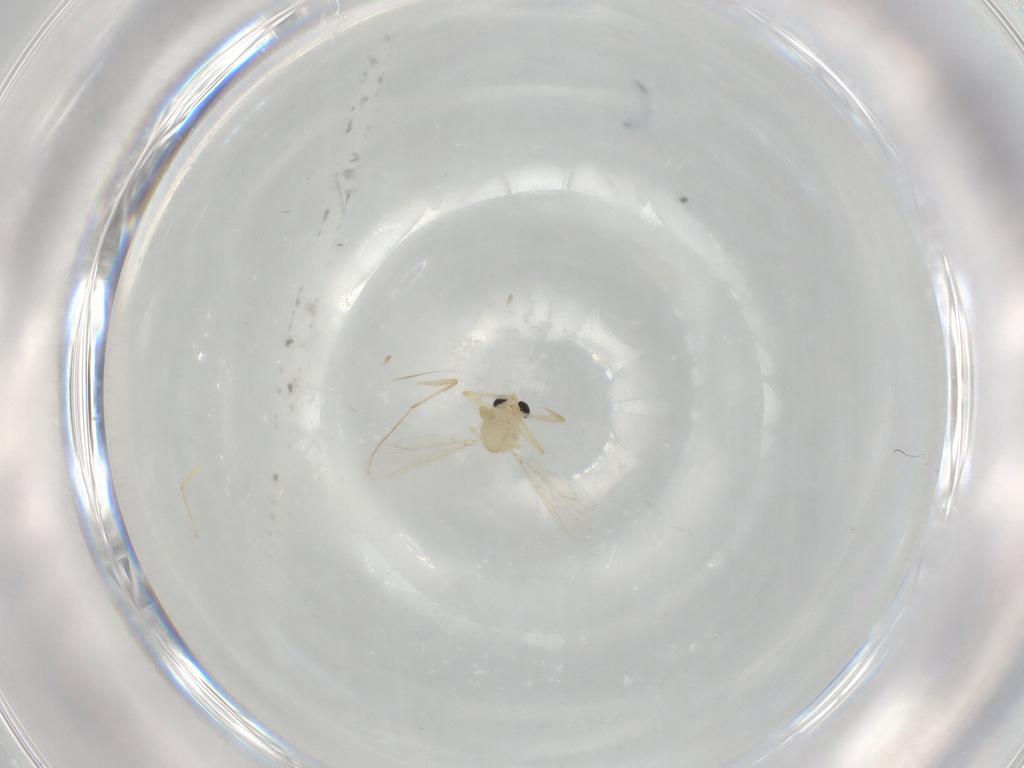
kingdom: Animalia
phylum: Arthropoda
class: Insecta
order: Diptera
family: Chironomidae
